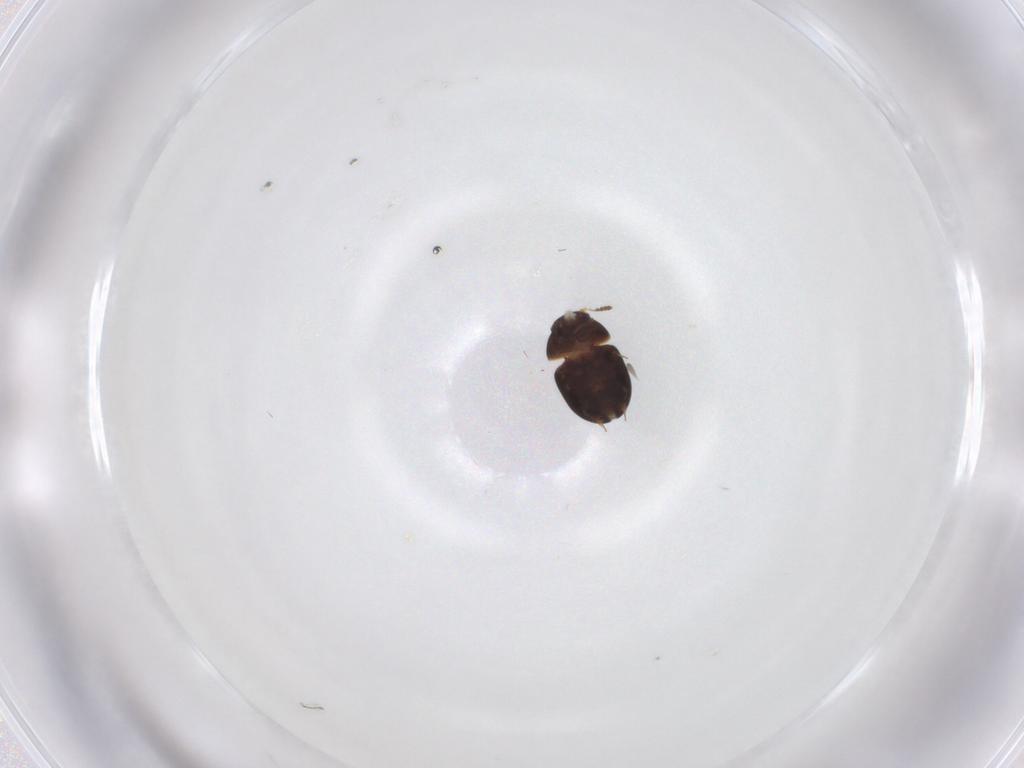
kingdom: Animalia
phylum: Arthropoda
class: Insecta
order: Coleoptera
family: Leiodidae
